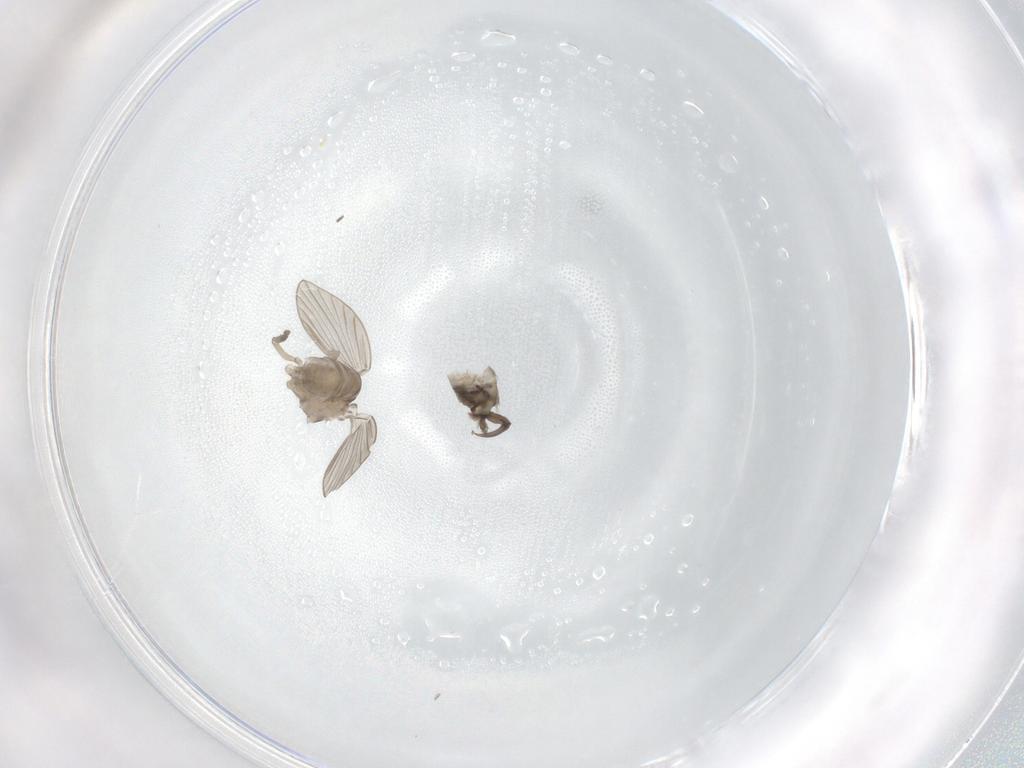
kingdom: Animalia
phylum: Arthropoda
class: Insecta
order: Diptera
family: Psychodidae
